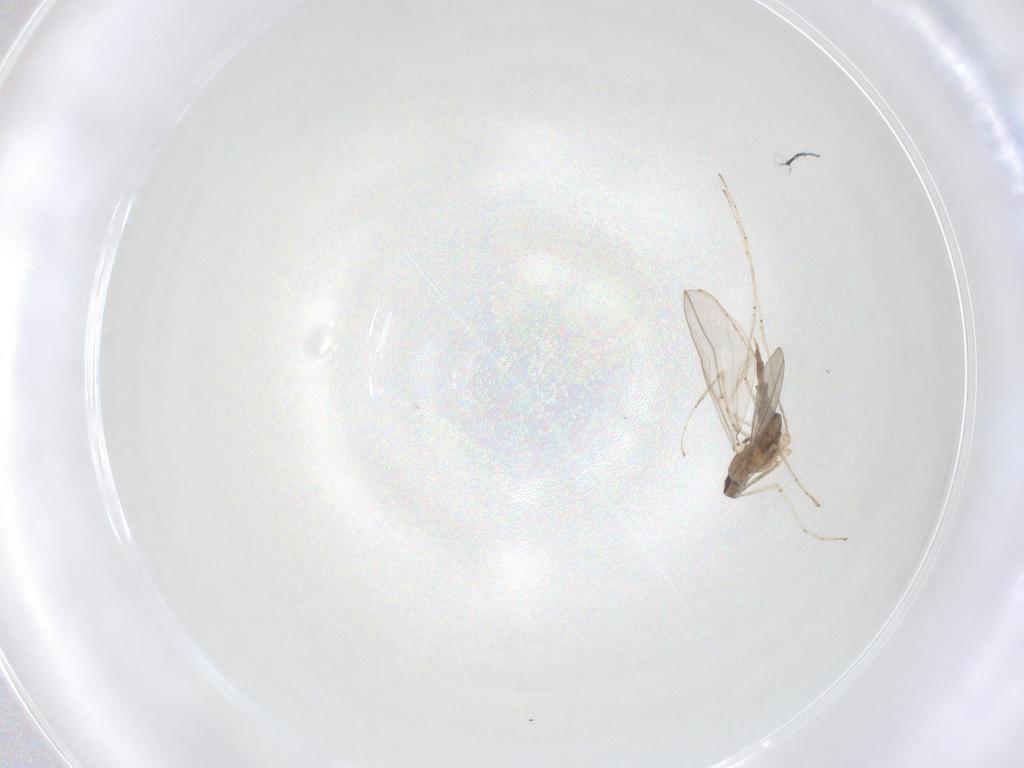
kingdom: Animalia
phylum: Arthropoda
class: Insecta
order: Diptera
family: Cecidomyiidae
